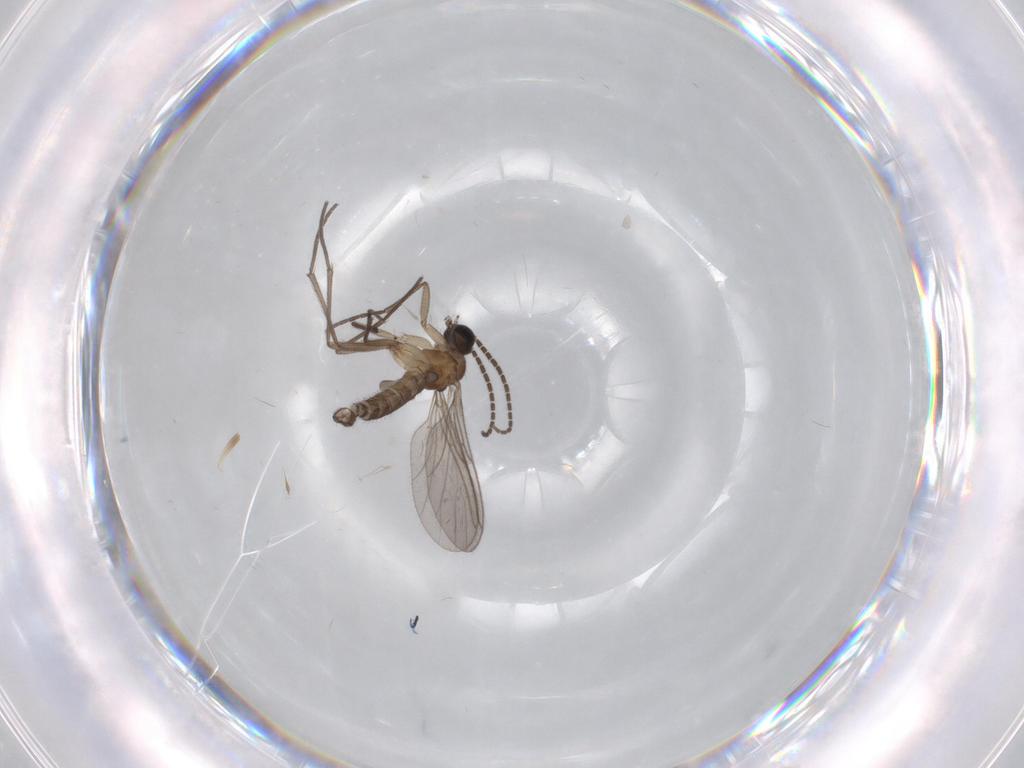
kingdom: Animalia
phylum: Arthropoda
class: Insecta
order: Diptera
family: Sciaridae
